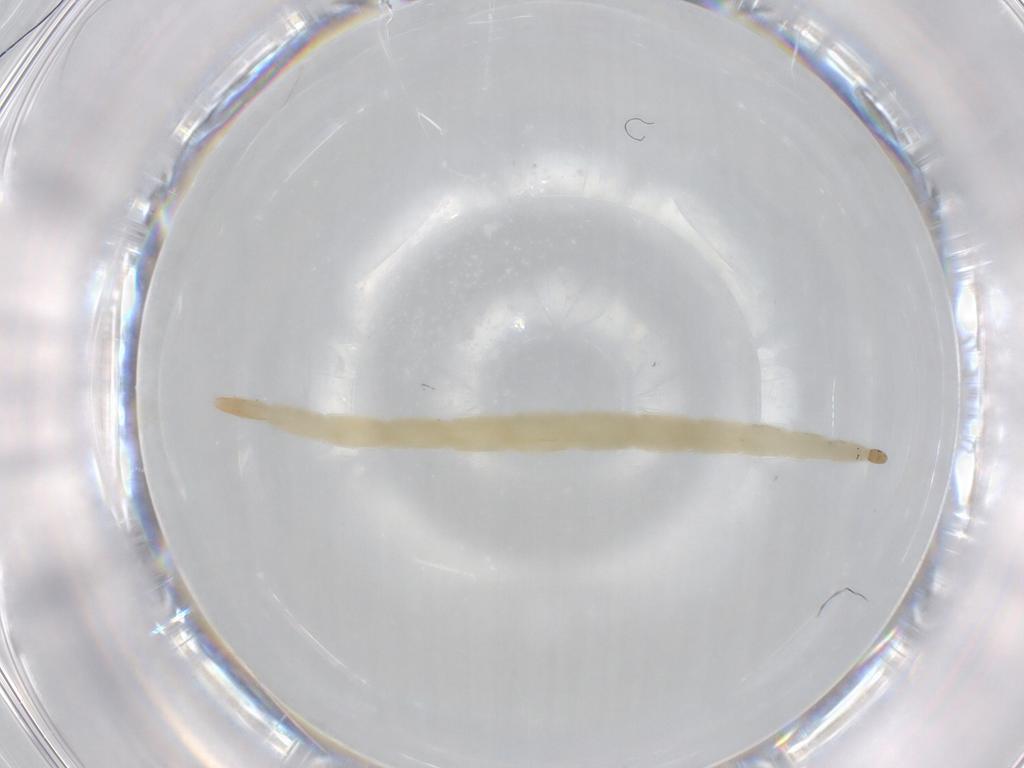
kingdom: Animalia
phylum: Arthropoda
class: Insecta
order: Diptera
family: Ceratopogonidae
